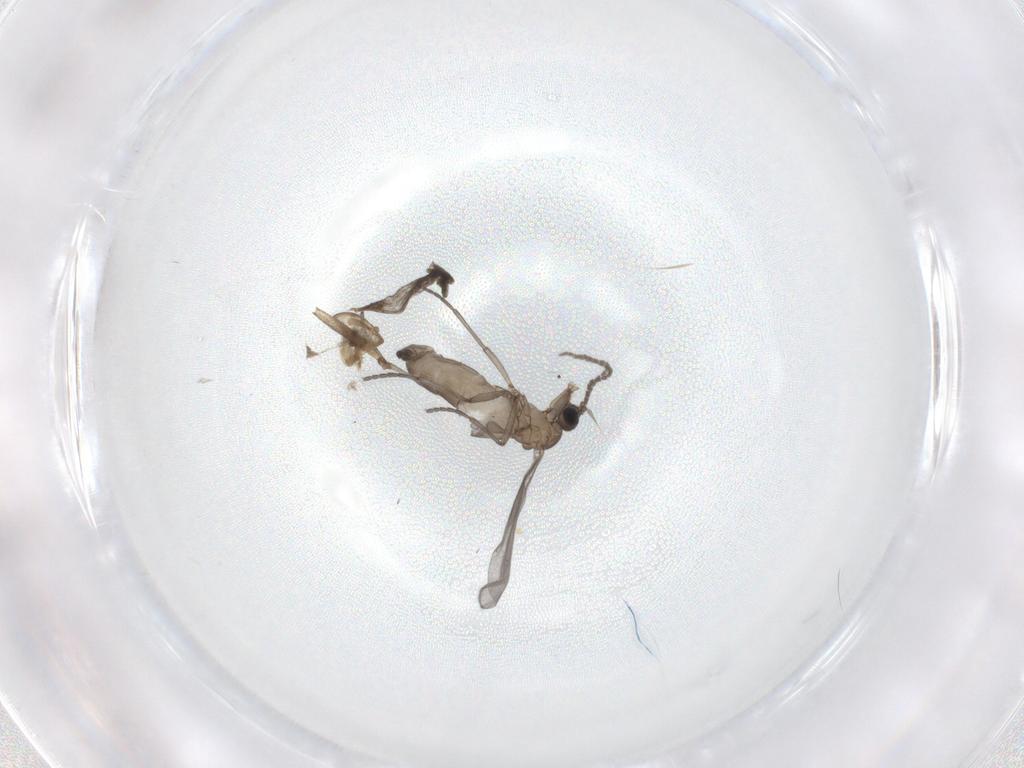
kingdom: Animalia
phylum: Arthropoda
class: Insecta
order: Diptera
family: Sciaridae
